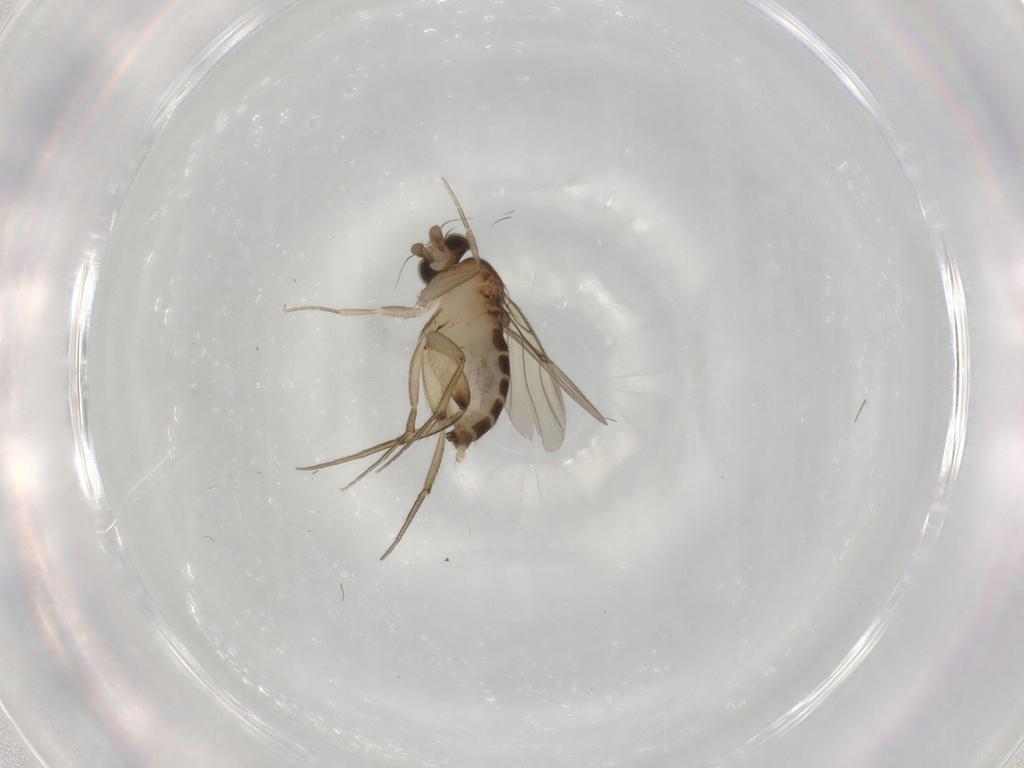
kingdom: Animalia
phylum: Arthropoda
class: Insecta
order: Diptera
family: Phoridae
